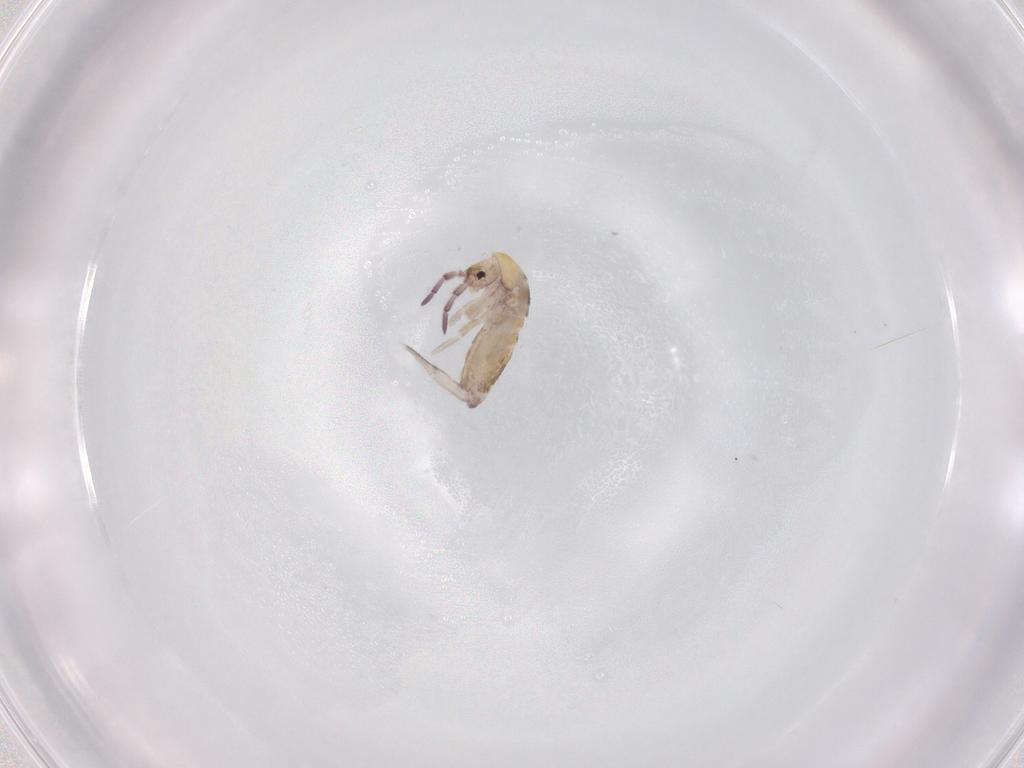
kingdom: Animalia
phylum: Arthropoda
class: Collembola
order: Entomobryomorpha
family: Entomobryidae
